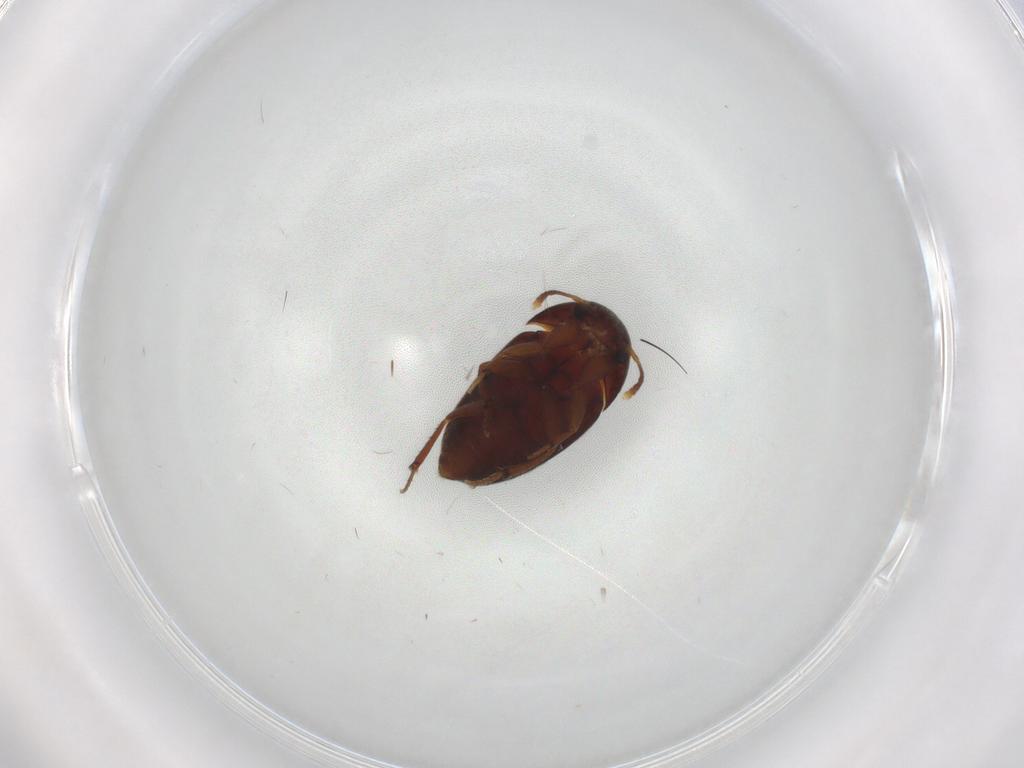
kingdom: Animalia
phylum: Arthropoda
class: Insecta
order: Coleoptera
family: Leiodidae
